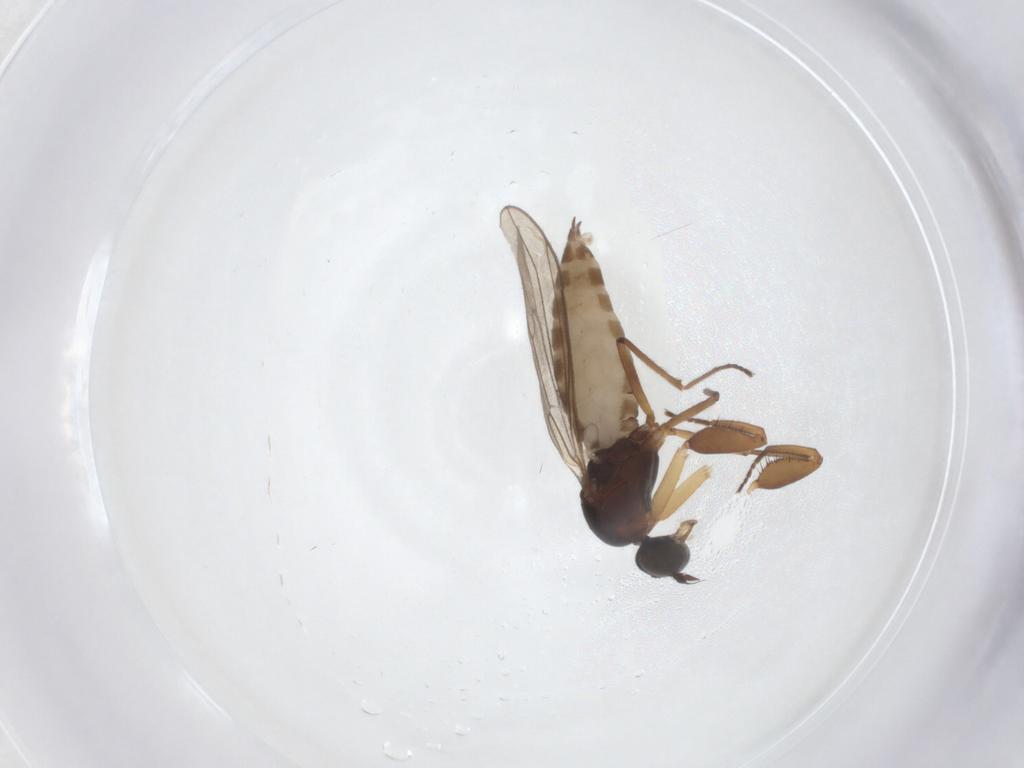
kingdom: Animalia
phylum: Arthropoda
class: Insecta
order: Diptera
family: Empididae
